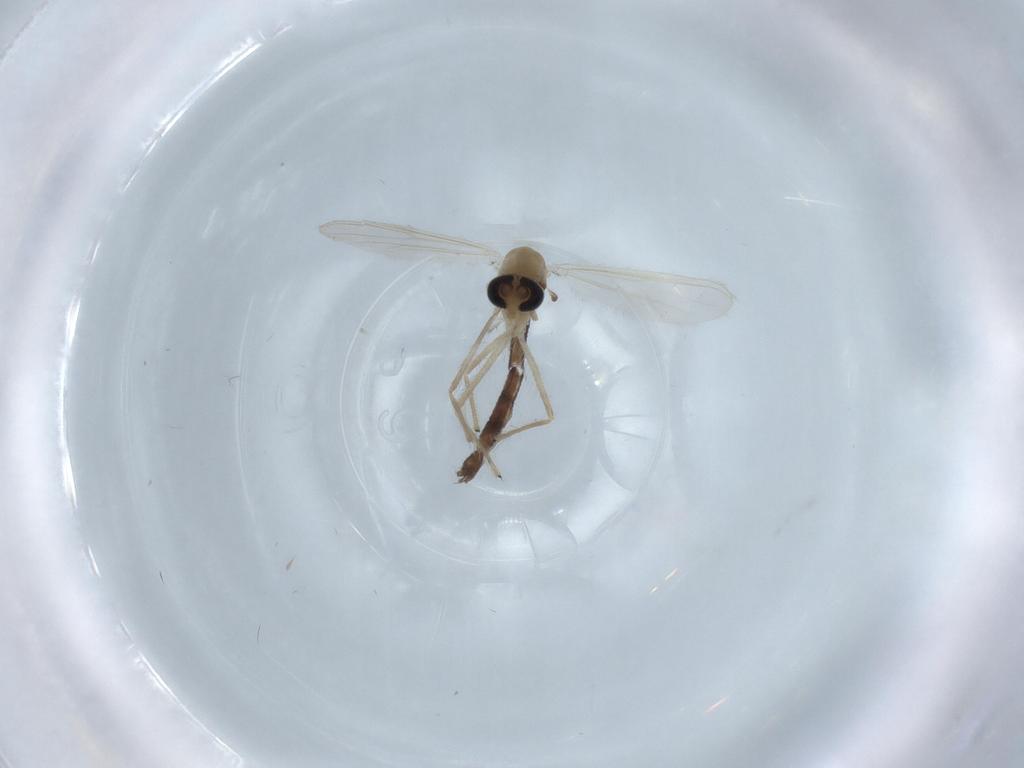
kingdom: Animalia
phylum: Arthropoda
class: Insecta
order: Diptera
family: Chironomidae
